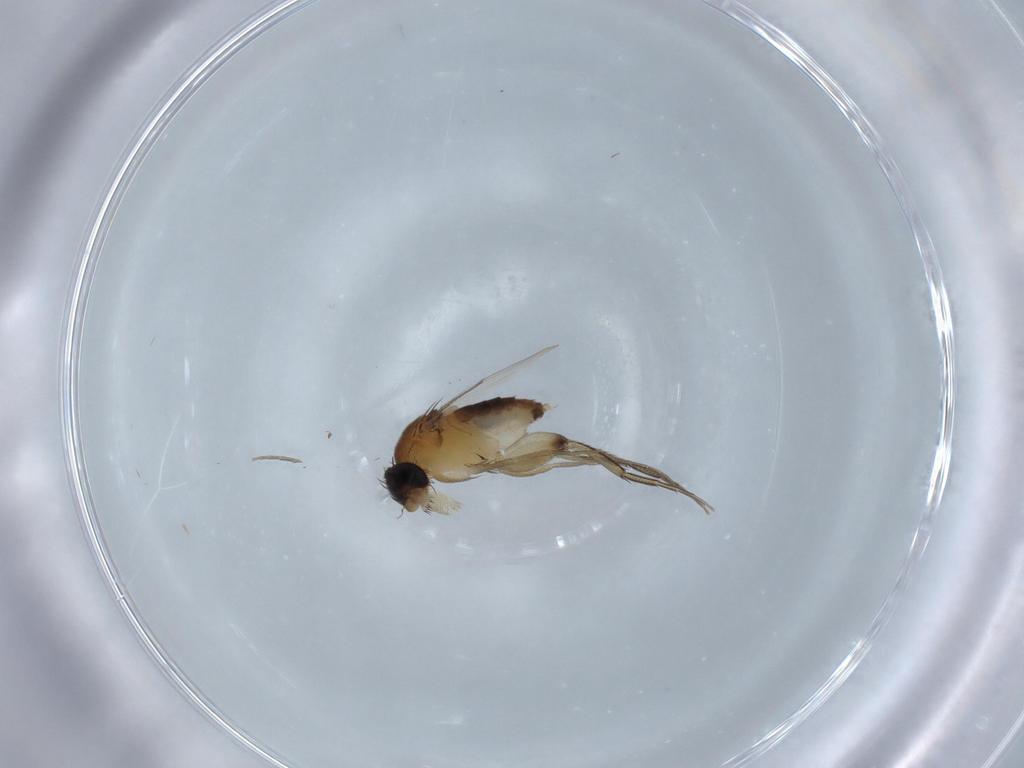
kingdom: Animalia
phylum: Arthropoda
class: Insecta
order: Diptera
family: Phoridae
